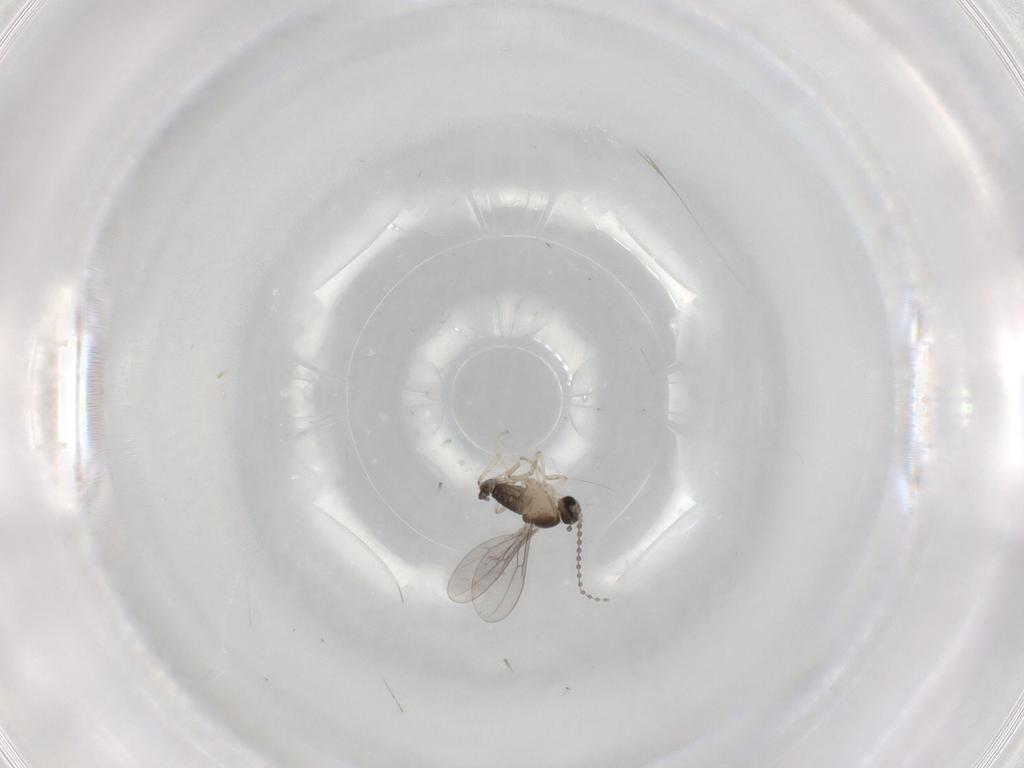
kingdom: Animalia
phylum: Arthropoda
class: Insecta
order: Diptera
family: Cecidomyiidae
